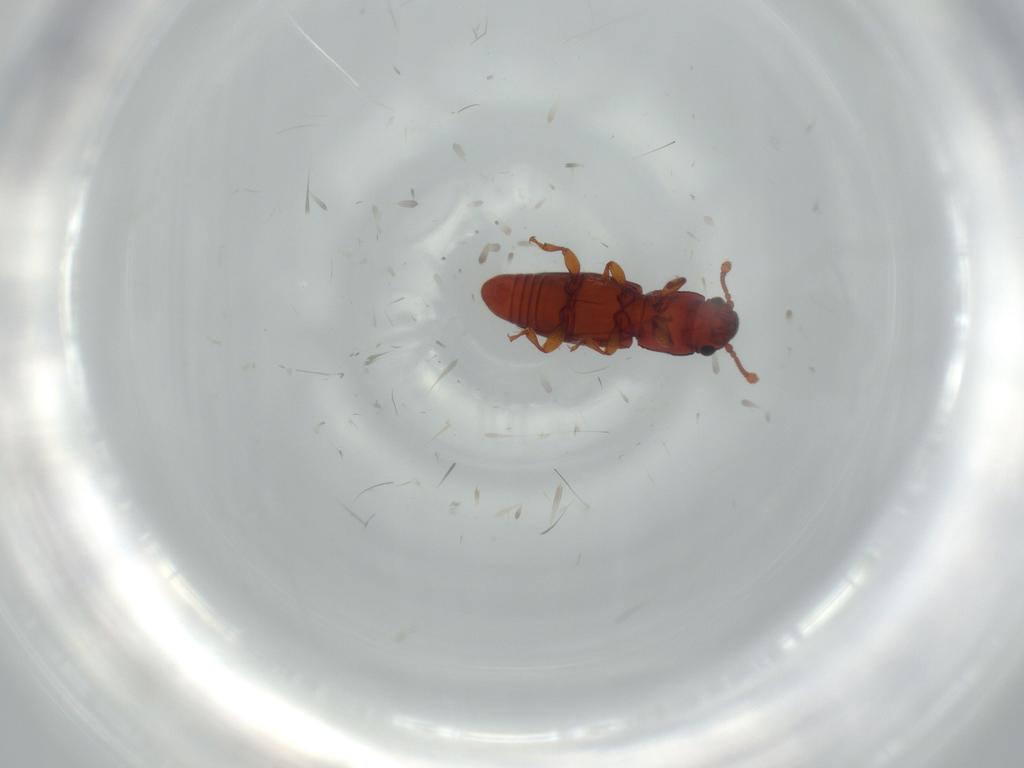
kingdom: Animalia
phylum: Arthropoda
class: Insecta
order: Coleoptera
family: Monotomidae
